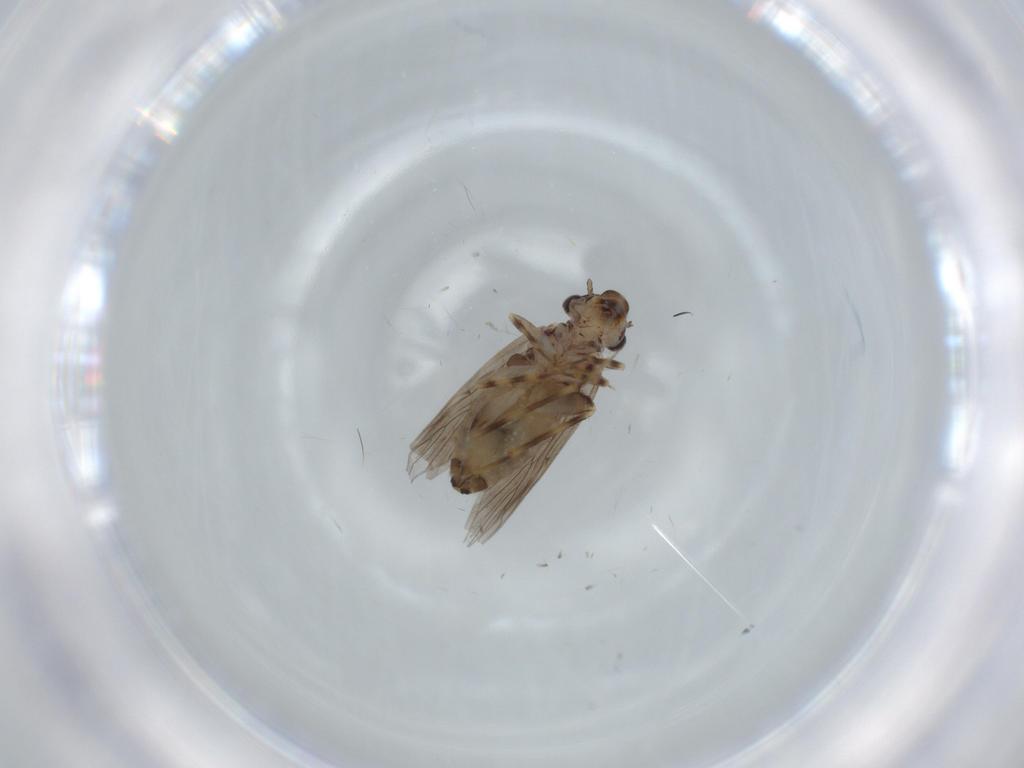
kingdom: Animalia
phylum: Arthropoda
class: Insecta
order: Psocodea
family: Lepidopsocidae
